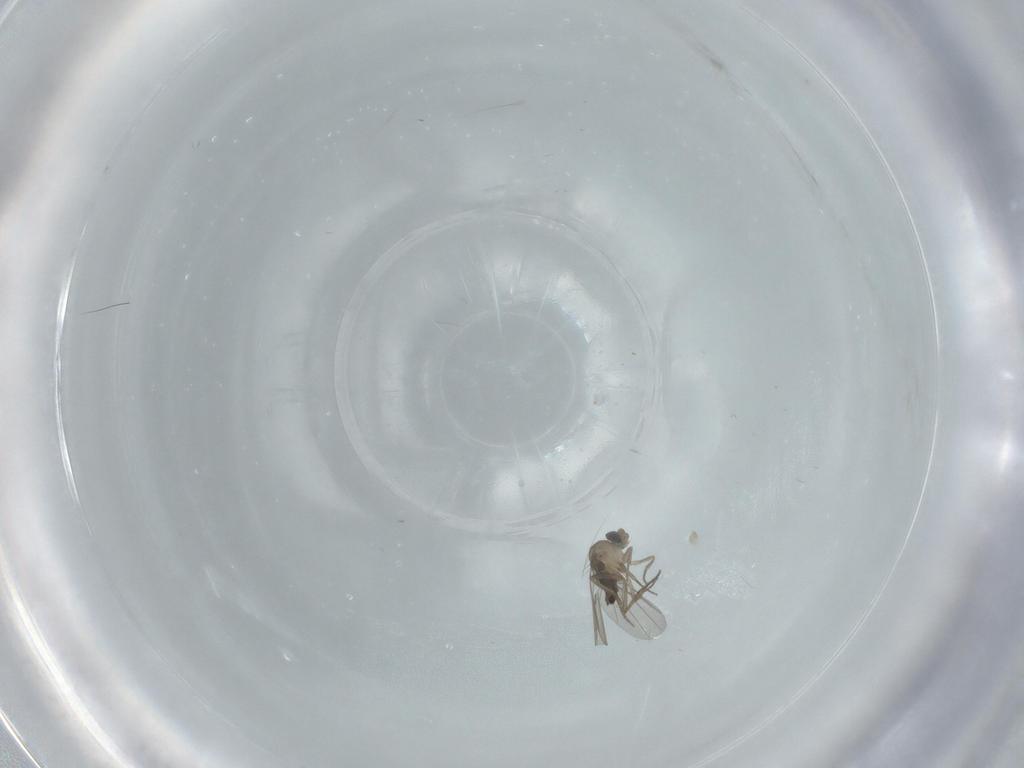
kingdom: Animalia
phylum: Arthropoda
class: Insecta
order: Diptera
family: Phoridae
